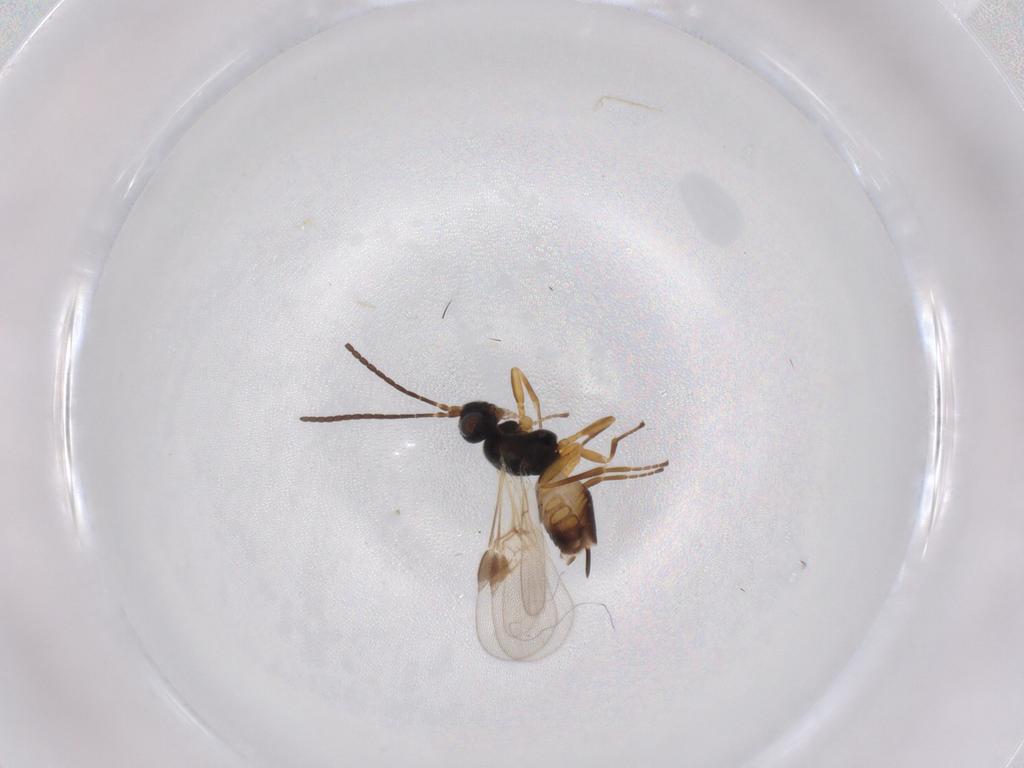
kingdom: Animalia
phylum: Arthropoda
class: Insecta
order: Hymenoptera
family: Braconidae
